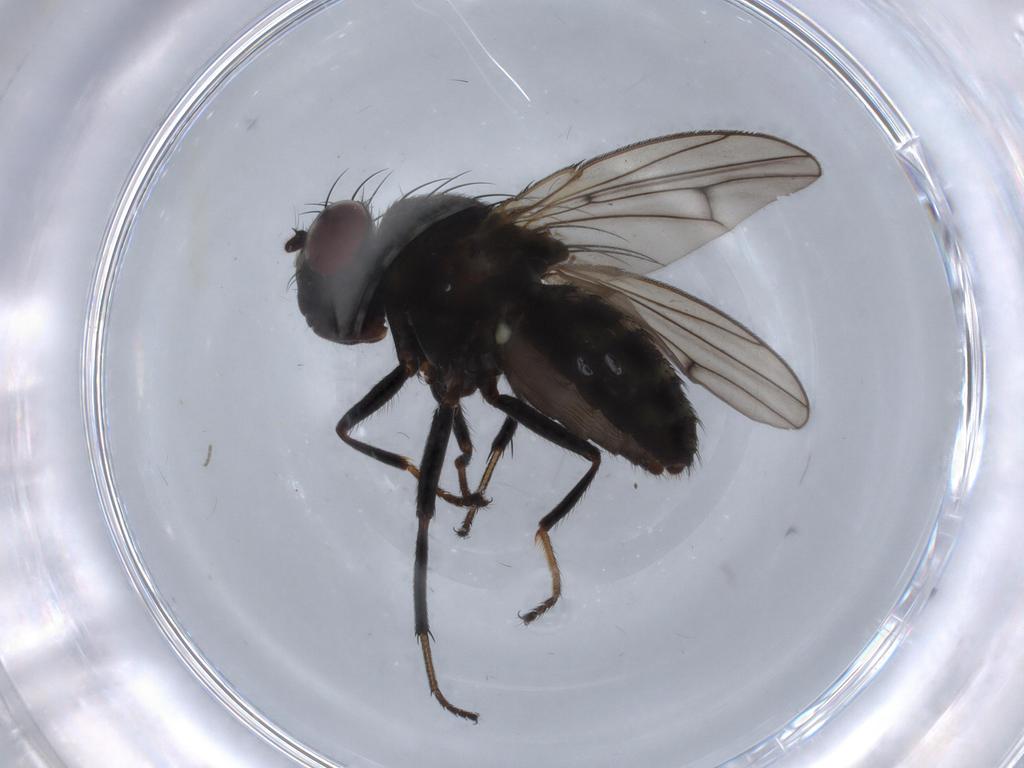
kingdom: Animalia
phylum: Arthropoda
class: Insecta
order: Diptera
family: Ephydridae
